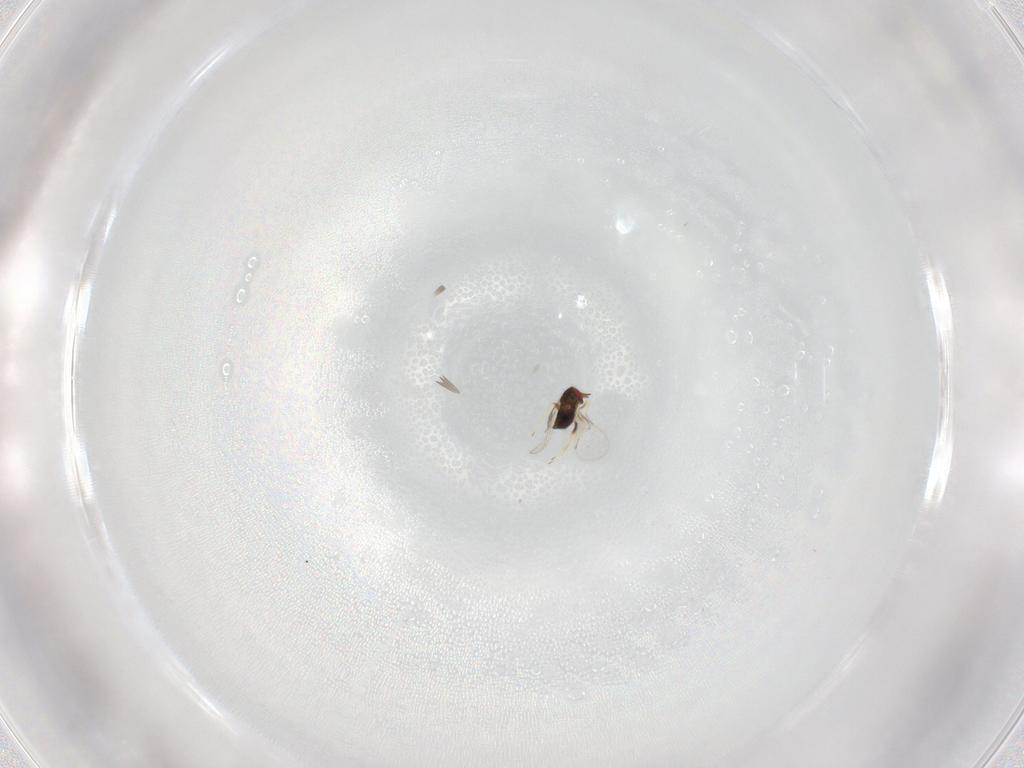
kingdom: Animalia
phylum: Arthropoda
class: Insecta
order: Hymenoptera
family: Trichogrammatidae
